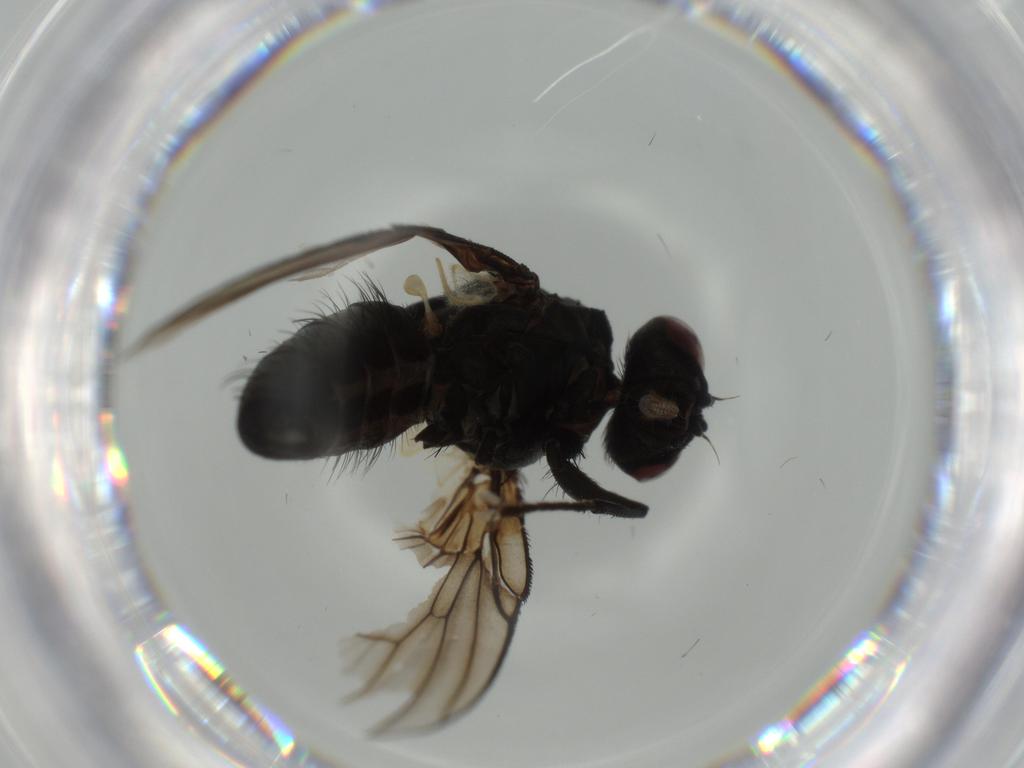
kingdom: Animalia
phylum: Arthropoda
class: Insecta
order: Diptera
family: Muscidae
